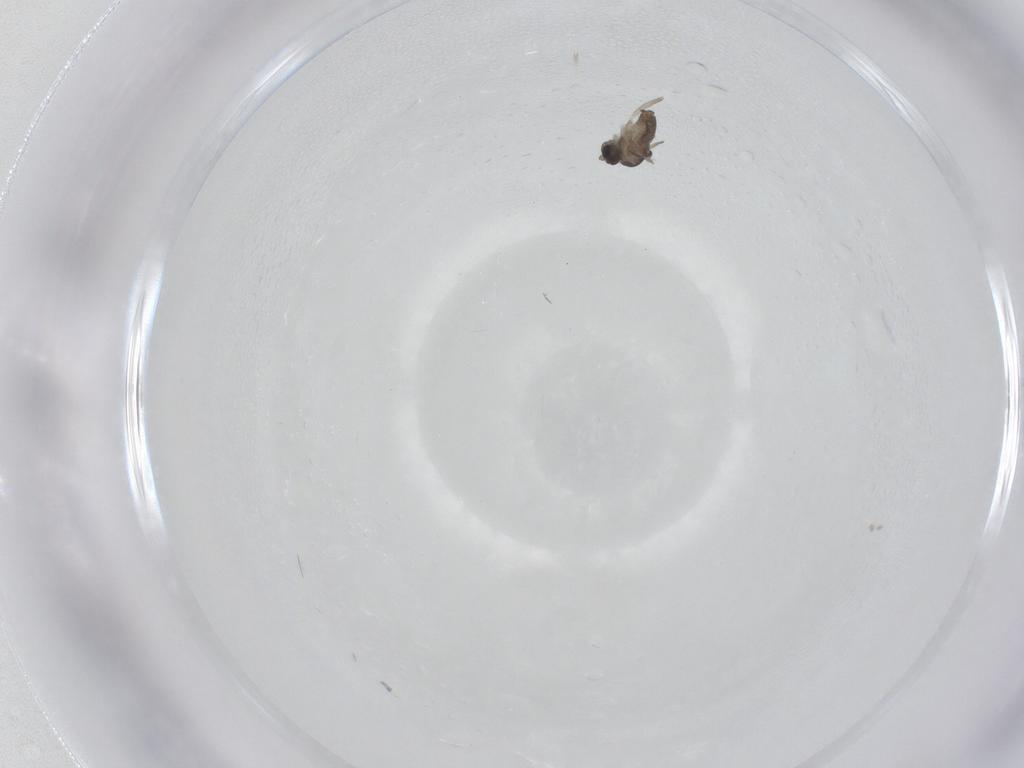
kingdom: Animalia
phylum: Arthropoda
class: Insecta
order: Diptera
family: Cecidomyiidae
